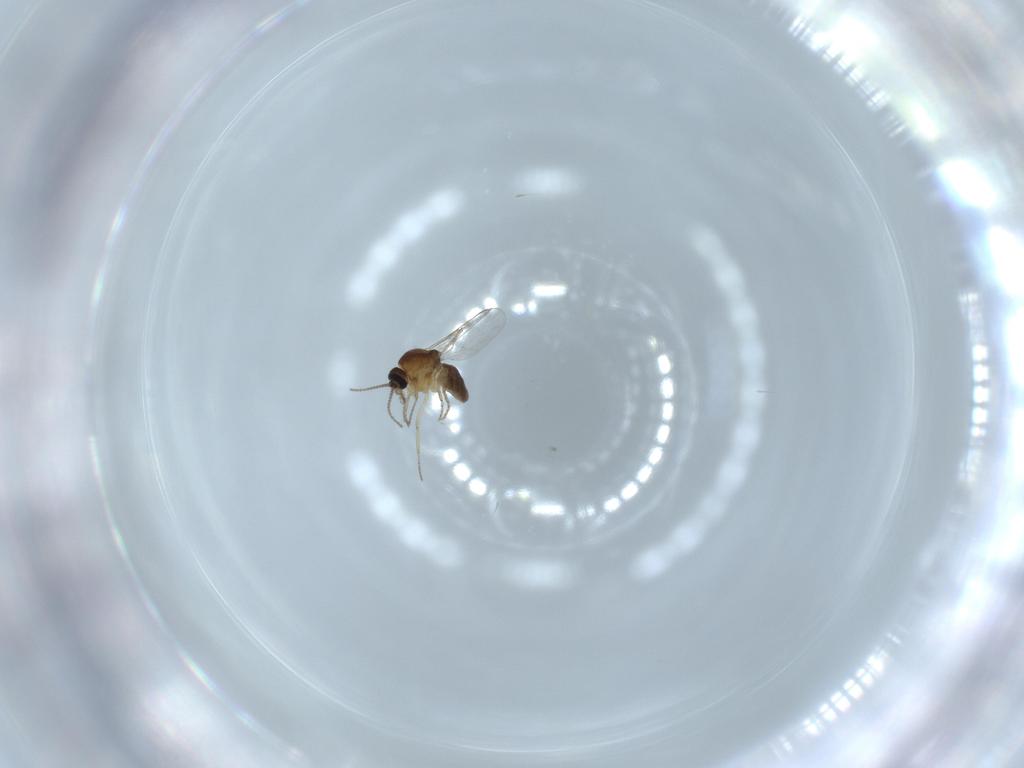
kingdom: Animalia
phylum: Arthropoda
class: Insecta
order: Diptera
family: Ceratopogonidae
